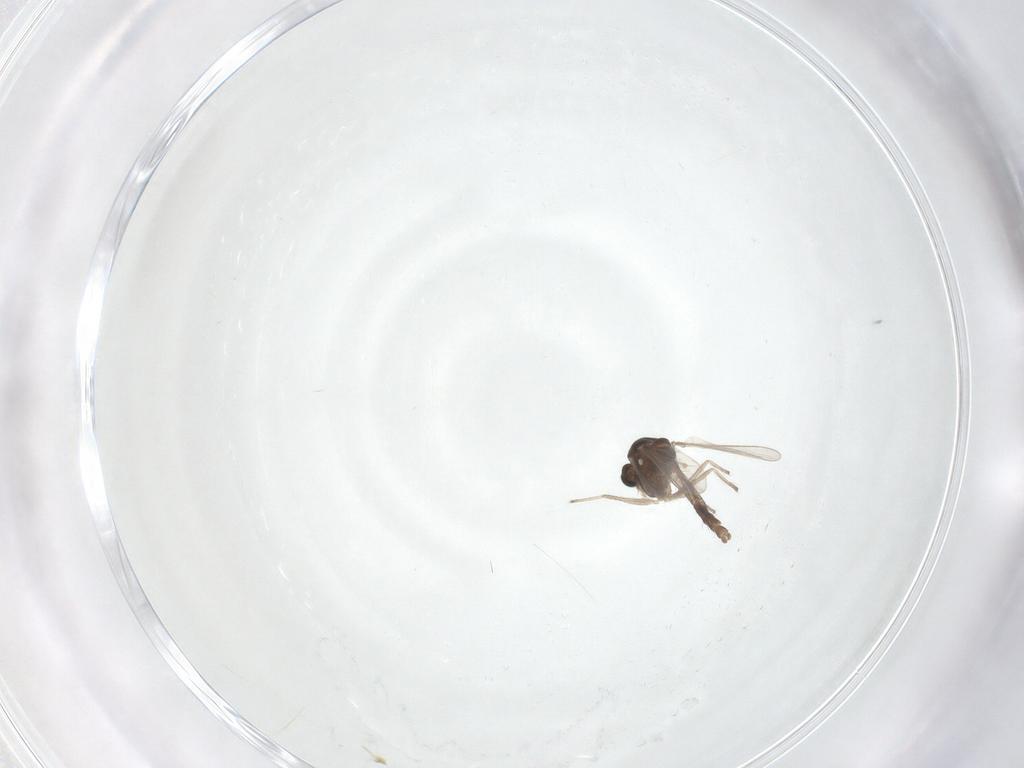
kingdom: Animalia
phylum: Arthropoda
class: Insecta
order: Diptera
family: Chironomidae
